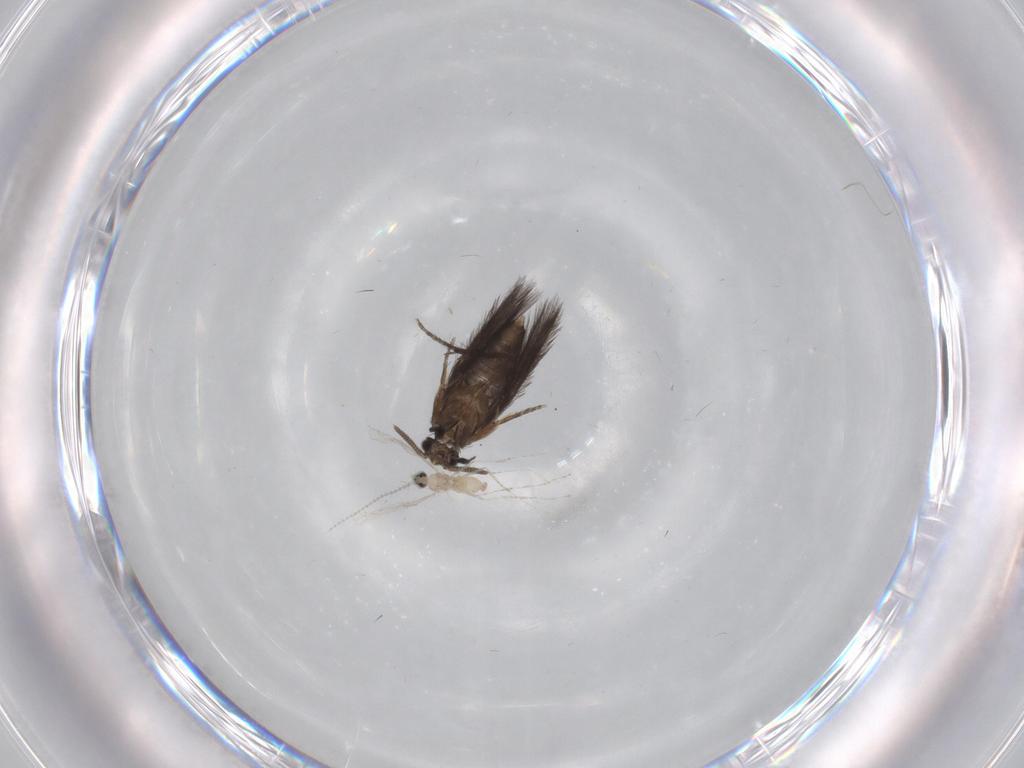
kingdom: Animalia
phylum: Arthropoda
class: Insecta
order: Diptera
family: Cecidomyiidae
